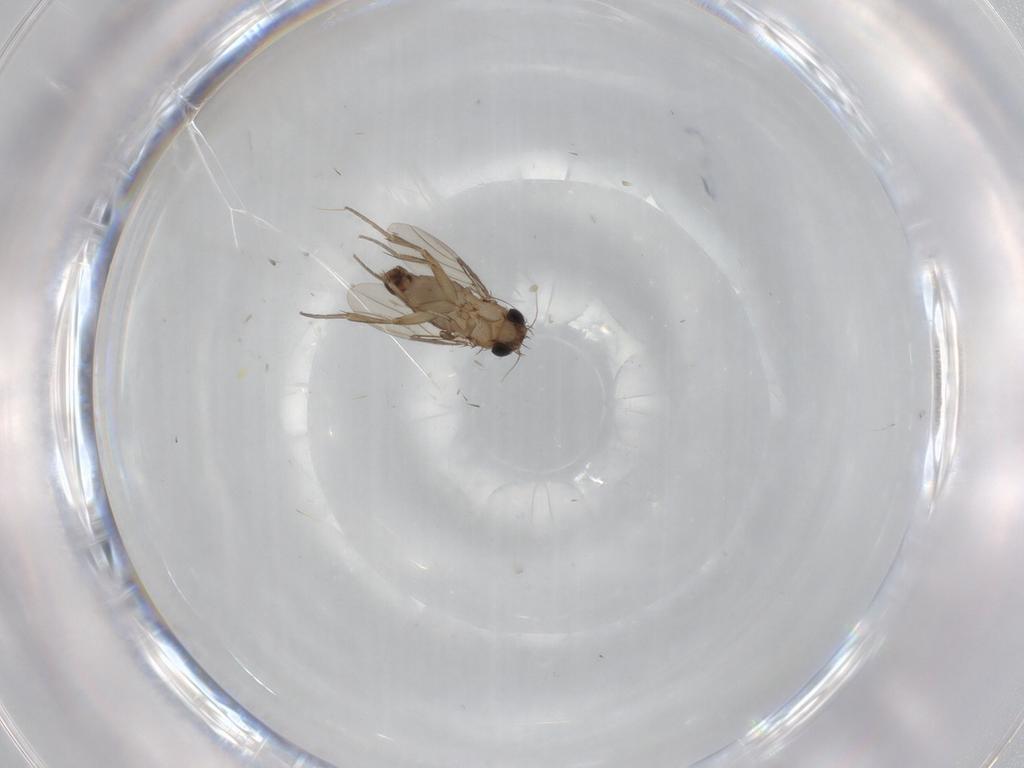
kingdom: Animalia
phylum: Arthropoda
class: Insecta
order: Diptera
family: Phoridae
